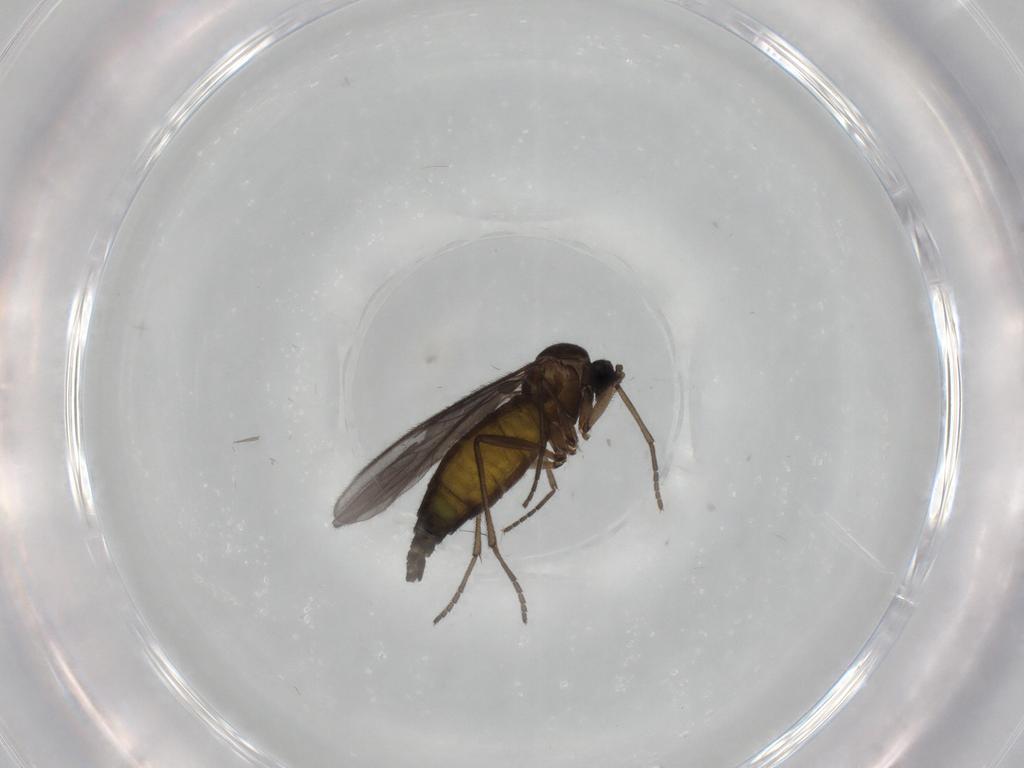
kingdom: Animalia
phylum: Arthropoda
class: Insecta
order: Diptera
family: Sciaridae
